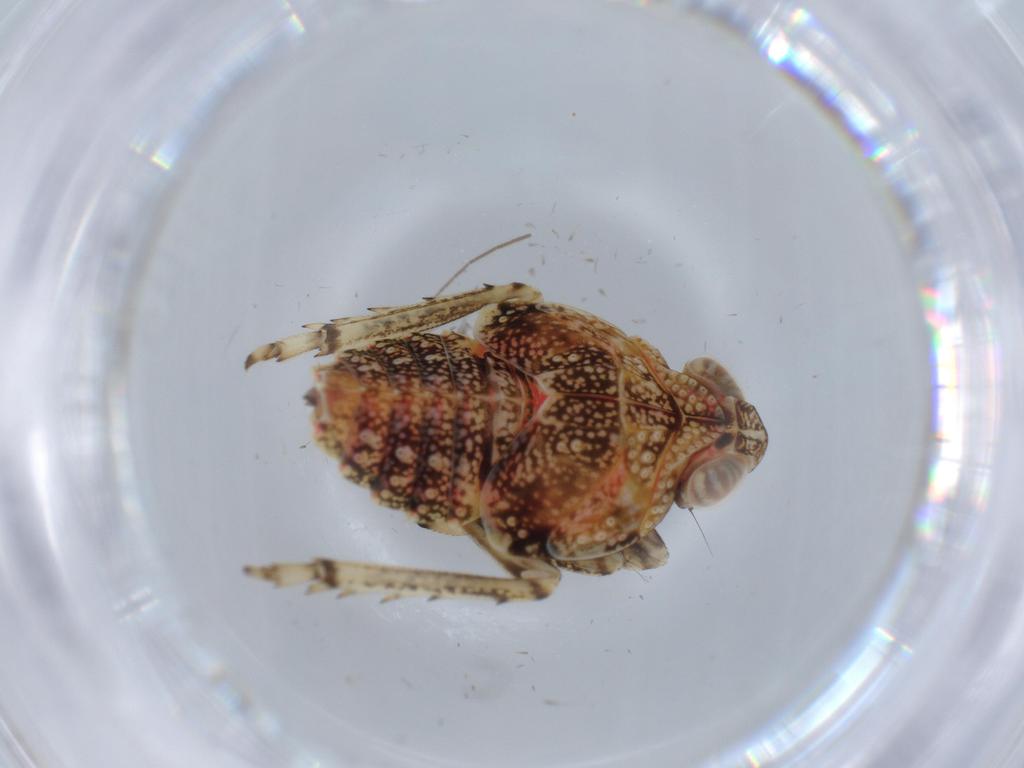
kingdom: Animalia
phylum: Arthropoda
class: Insecta
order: Hemiptera
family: Issidae
